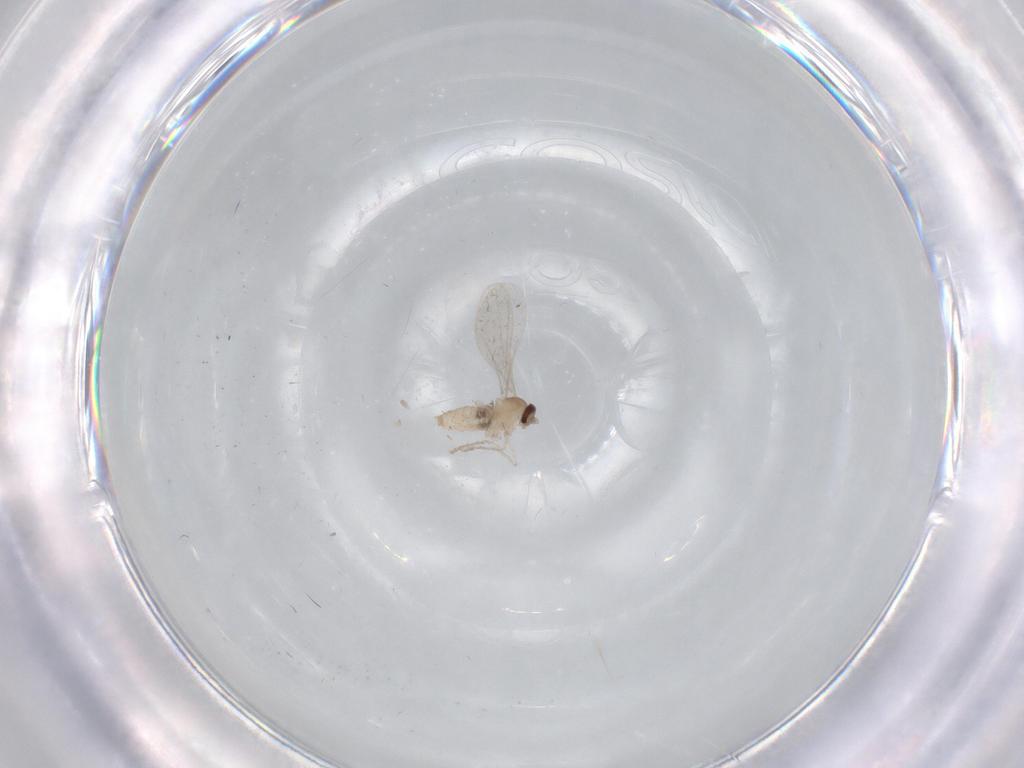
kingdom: Animalia
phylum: Arthropoda
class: Insecta
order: Diptera
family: Cecidomyiidae
